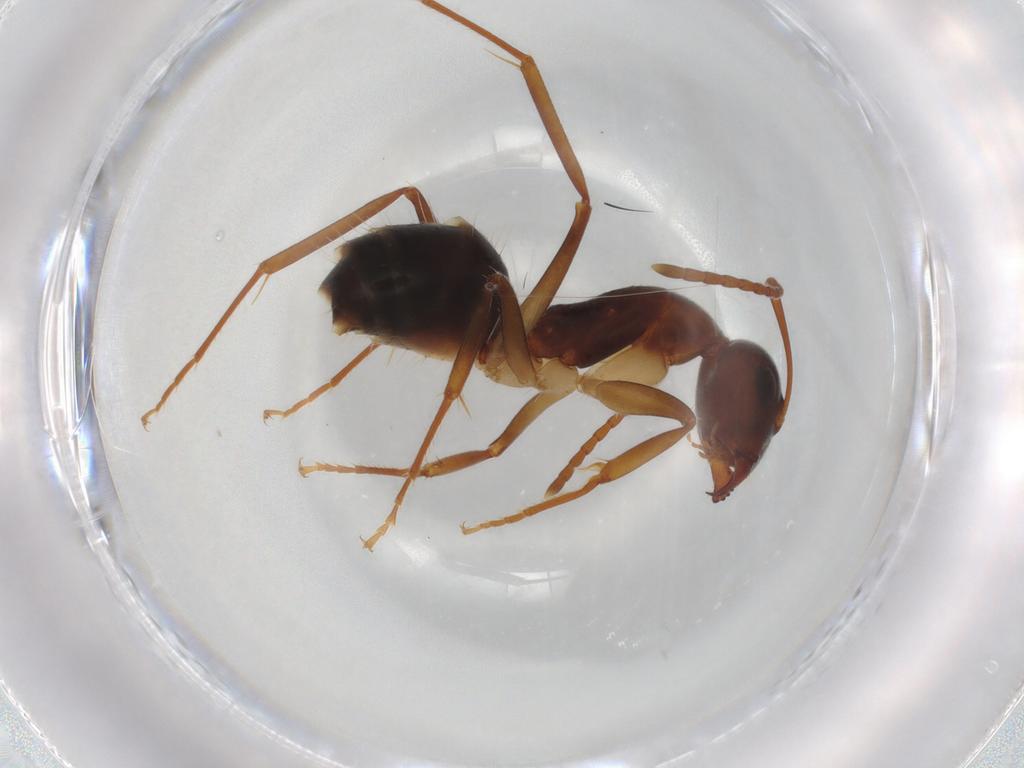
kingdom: Animalia
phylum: Arthropoda
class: Insecta
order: Hymenoptera
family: Formicidae
